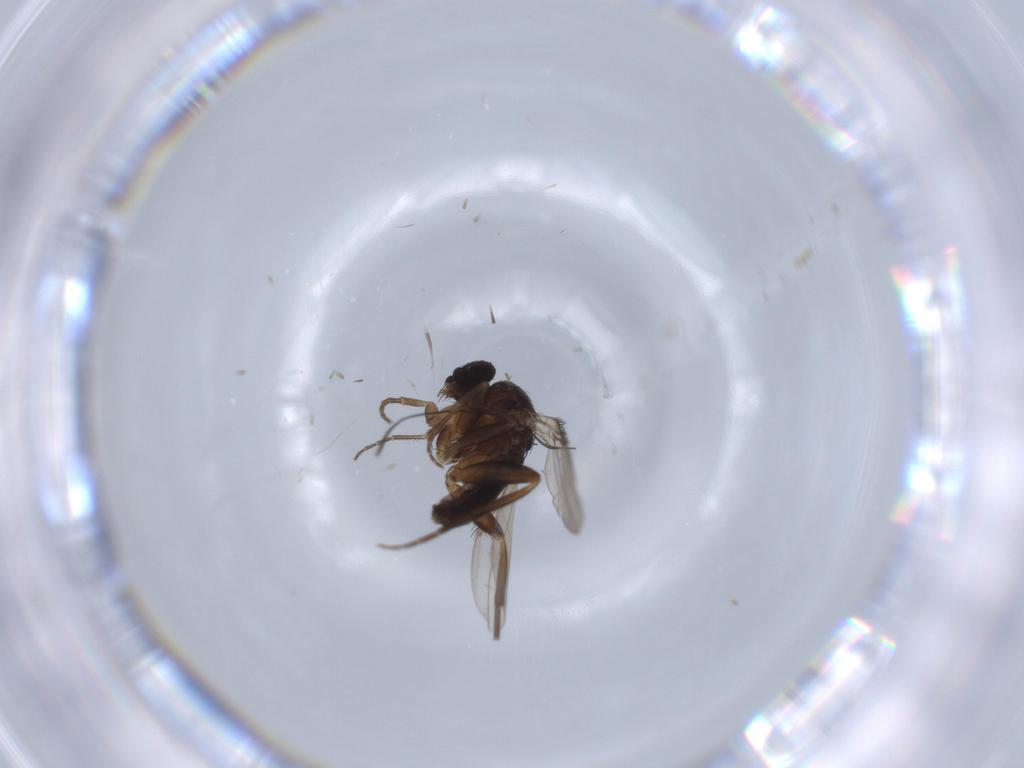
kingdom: Animalia
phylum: Arthropoda
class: Insecta
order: Diptera
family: Phoridae
